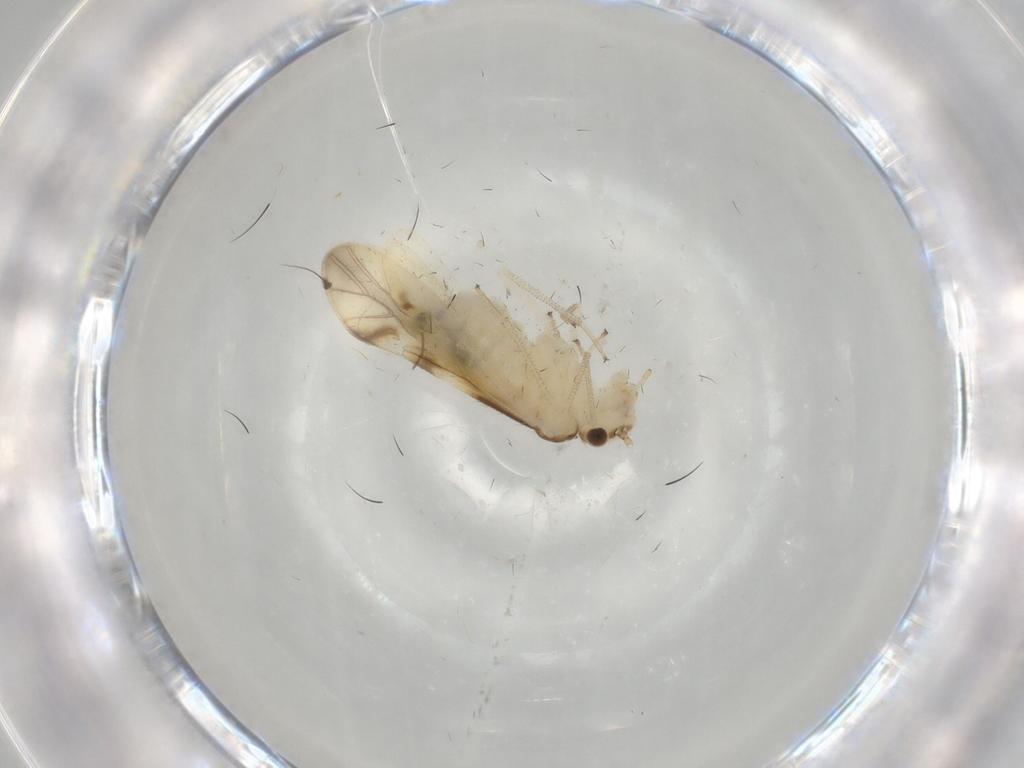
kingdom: Animalia
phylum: Arthropoda
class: Insecta
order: Psocodea
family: Caeciliusidae
